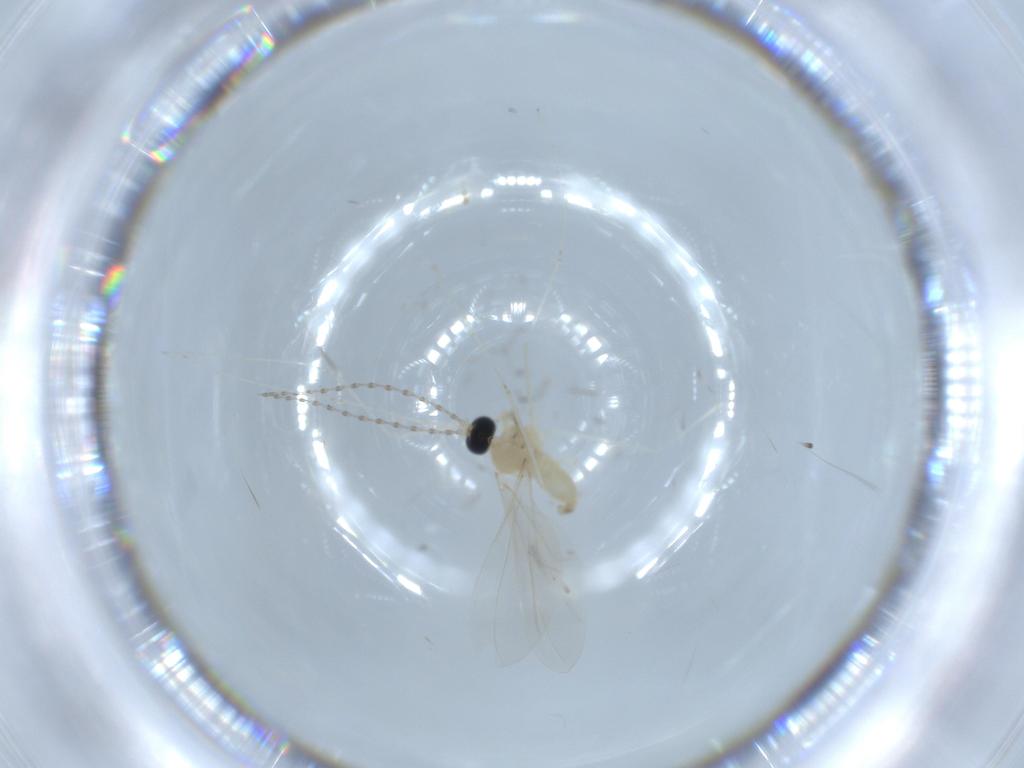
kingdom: Animalia
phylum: Arthropoda
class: Insecta
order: Diptera
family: Cecidomyiidae
